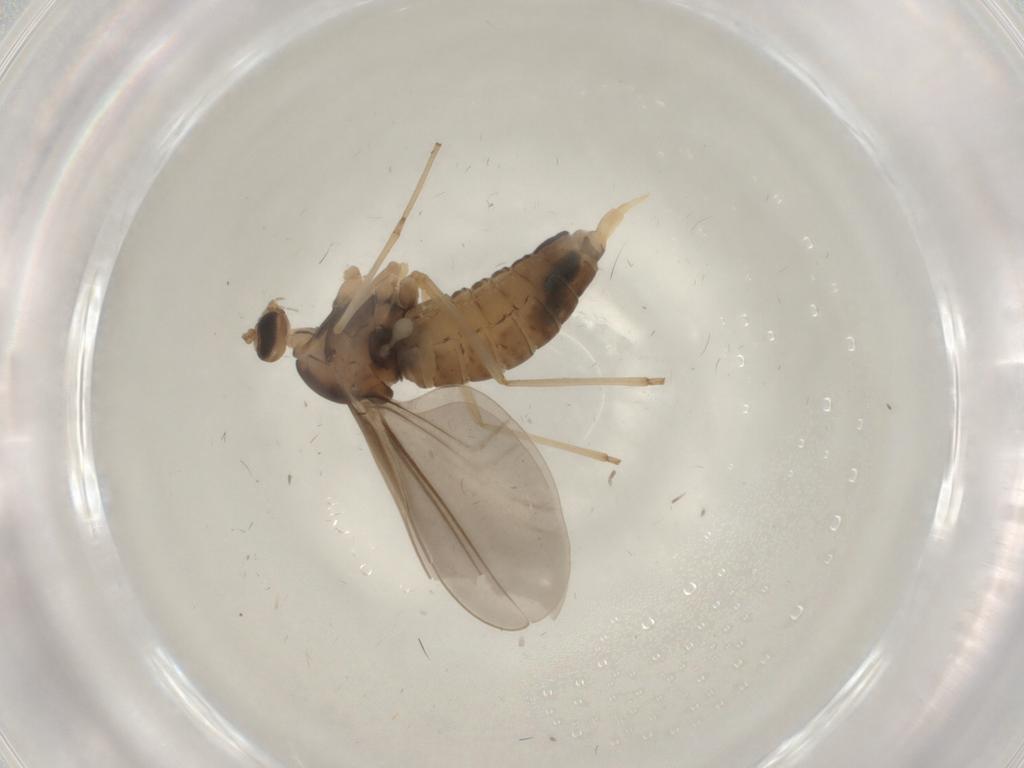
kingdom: Animalia
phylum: Arthropoda
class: Insecta
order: Diptera
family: Cecidomyiidae
